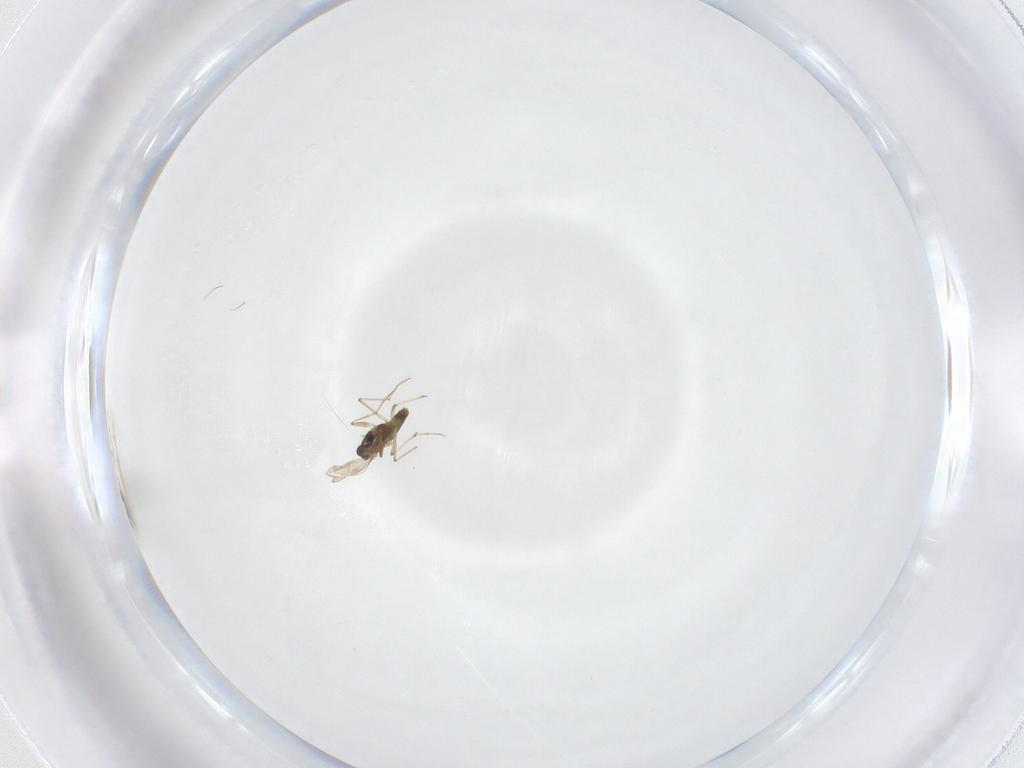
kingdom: Animalia
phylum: Arthropoda
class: Insecta
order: Diptera
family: Chironomidae
